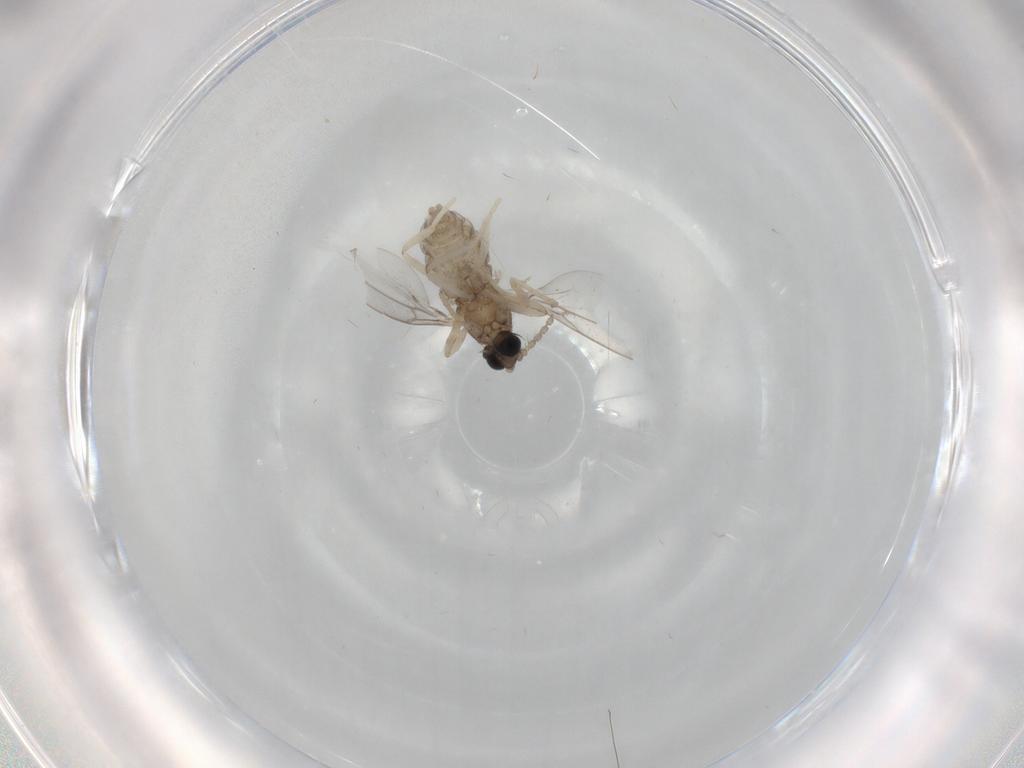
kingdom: Animalia
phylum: Arthropoda
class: Insecta
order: Diptera
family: Cecidomyiidae
